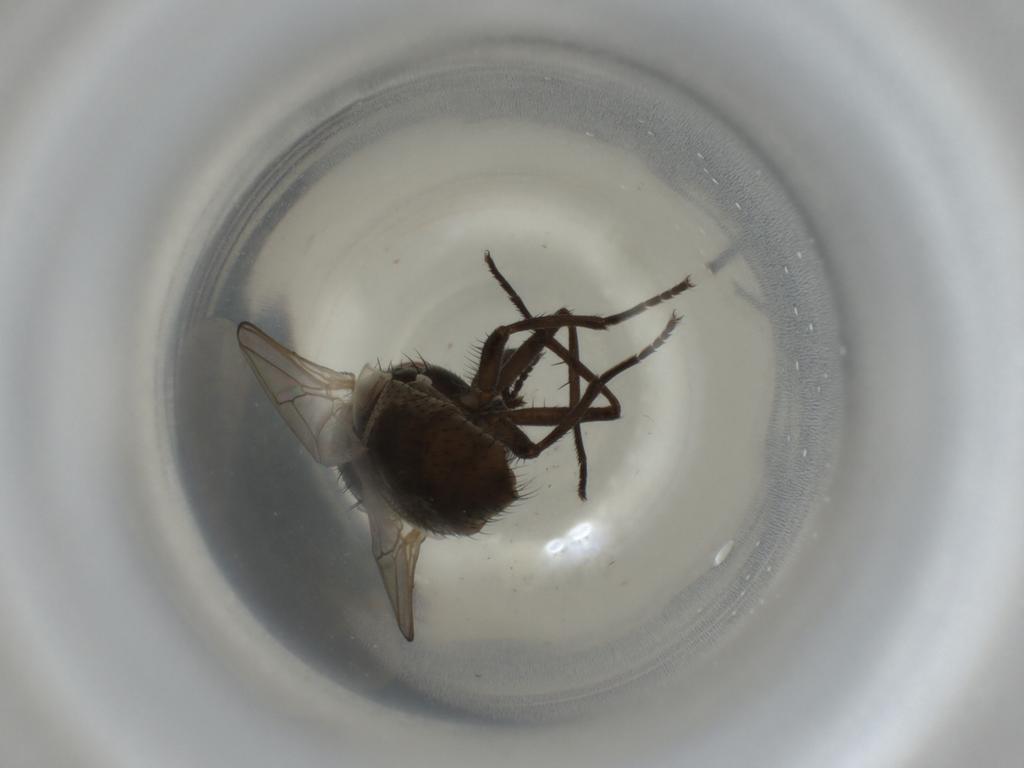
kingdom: Animalia
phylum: Arthropoda
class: Insecta
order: Diptera
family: Muscidae
